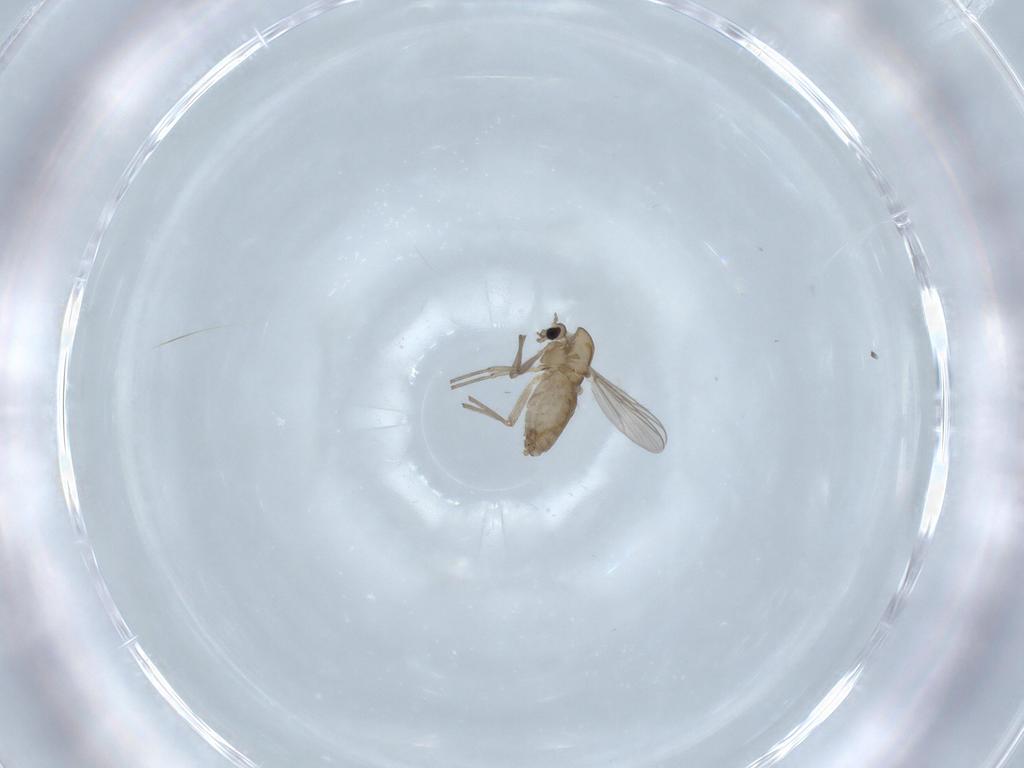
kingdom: Animalia
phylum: Arthropoda
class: Insecta
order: Diptera
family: Chironomidae
